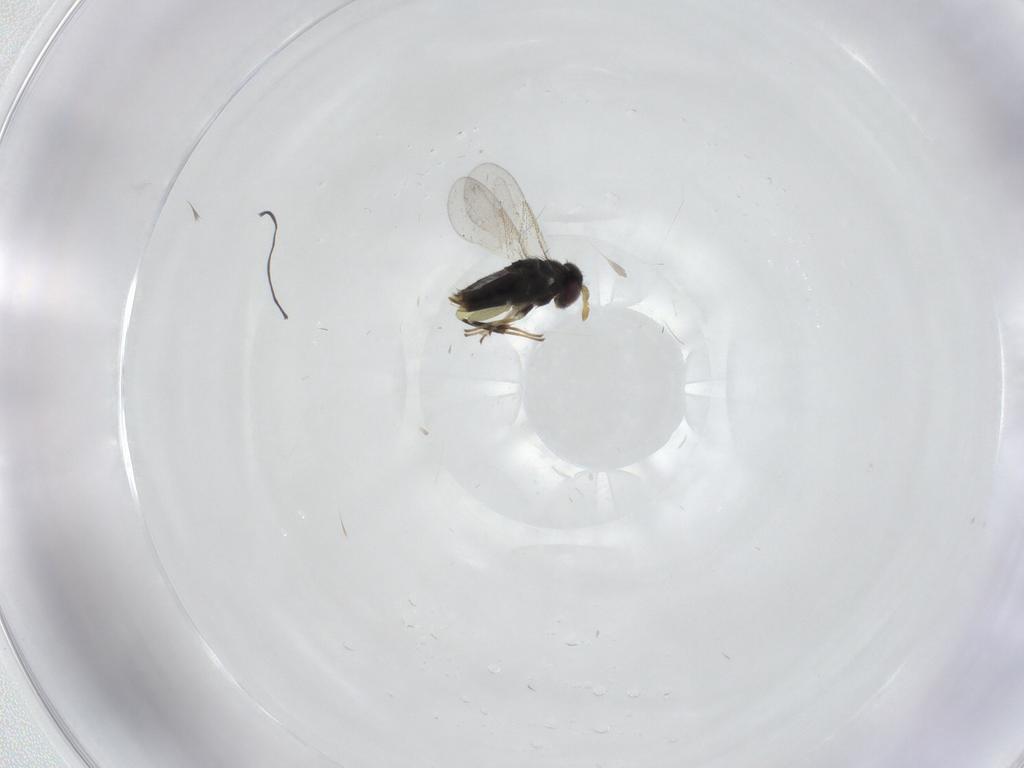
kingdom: Animalia
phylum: Arthropoda
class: Insecta
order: Hymenoptera
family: Aphelinidae
